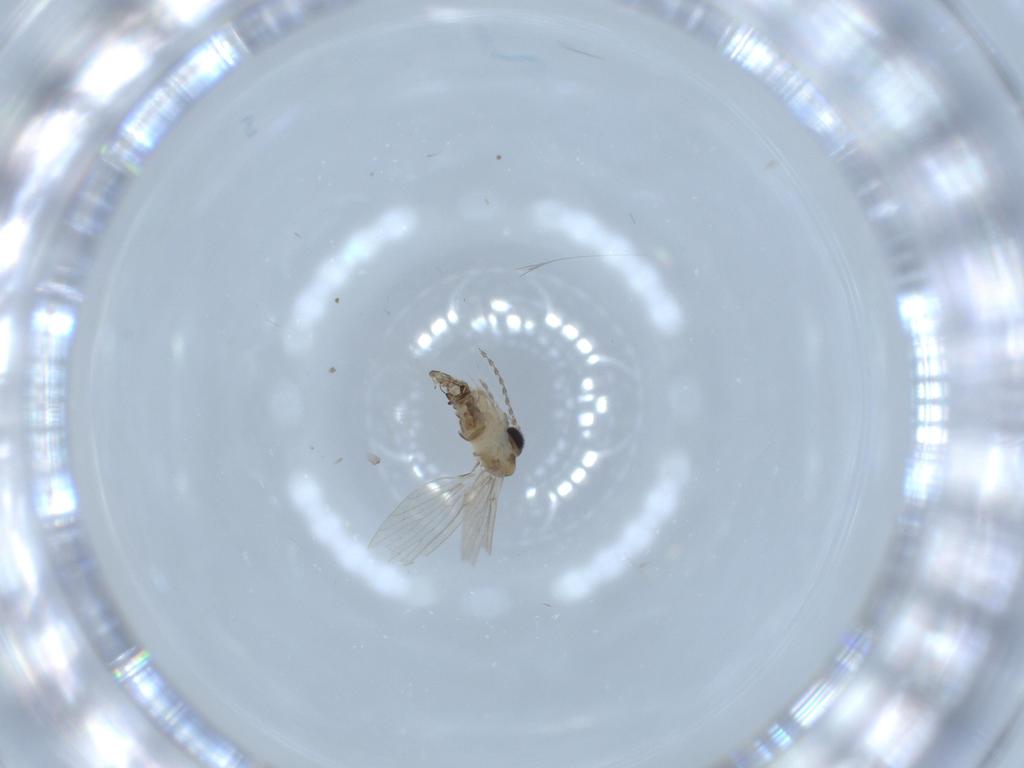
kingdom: Animalia
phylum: Arthropoda
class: Insecta
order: Diptera
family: Psychodidae
